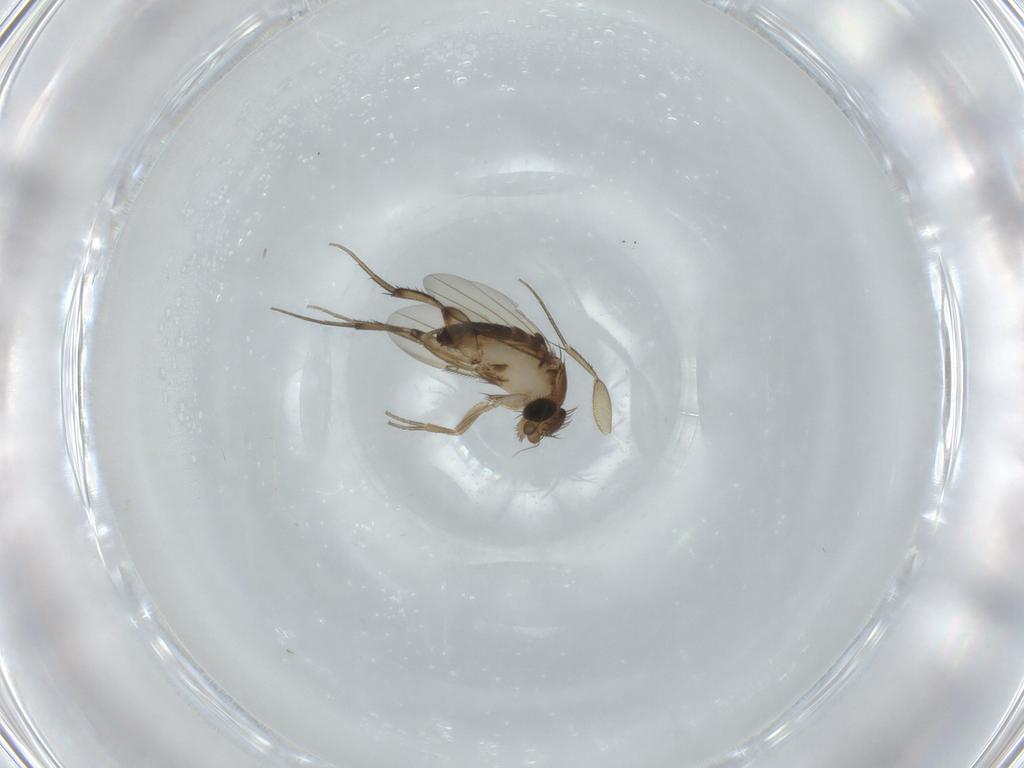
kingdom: Animalia
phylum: Arthropoda
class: Insecta
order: Diptera
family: Phoridae
